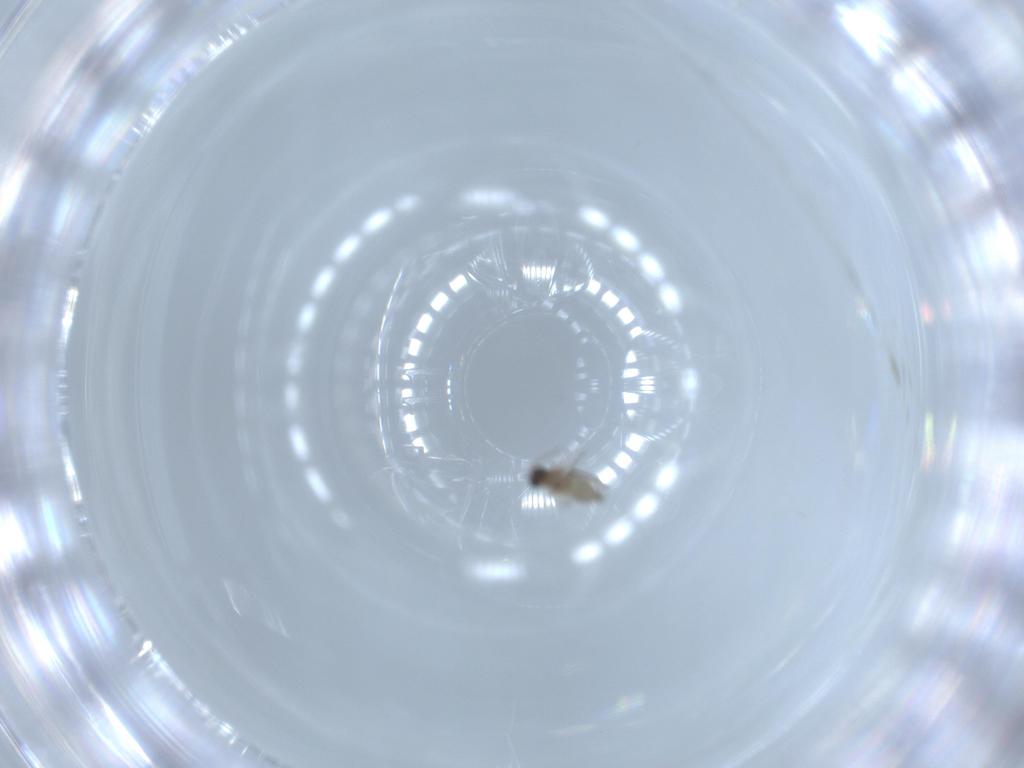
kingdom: Animalia
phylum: Arthropoda
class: Insecta
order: Diptera
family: Cecidomyiidae
